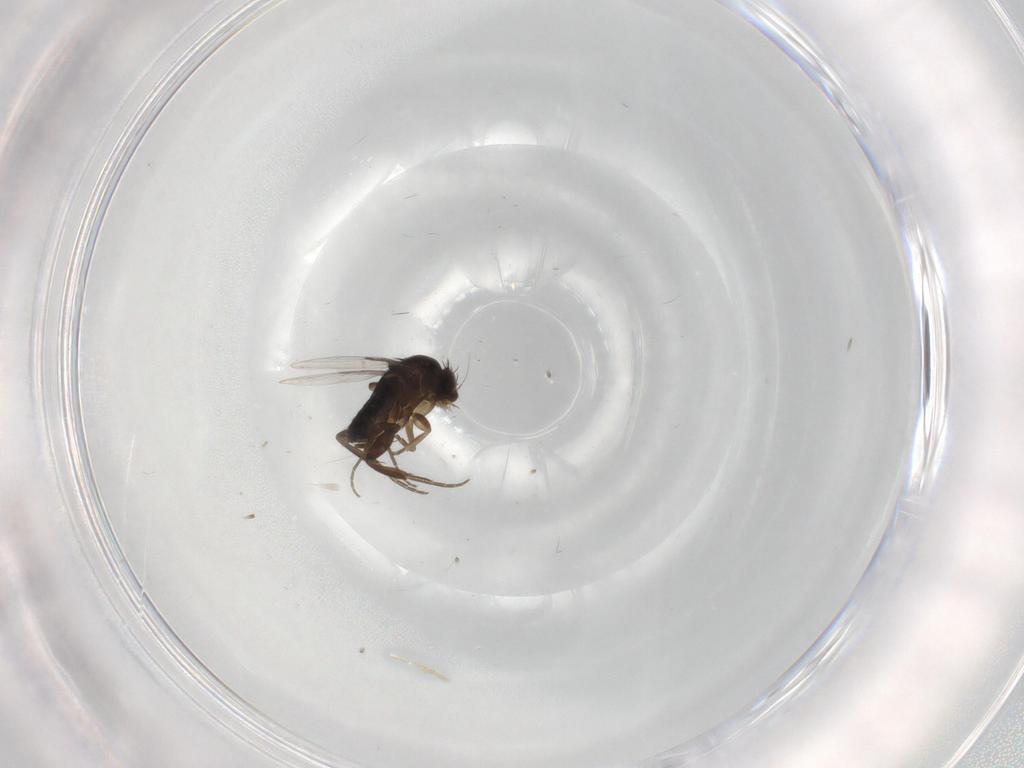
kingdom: Animalia
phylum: Arthropoda
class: Insecta
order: Diptera
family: Phoridae
